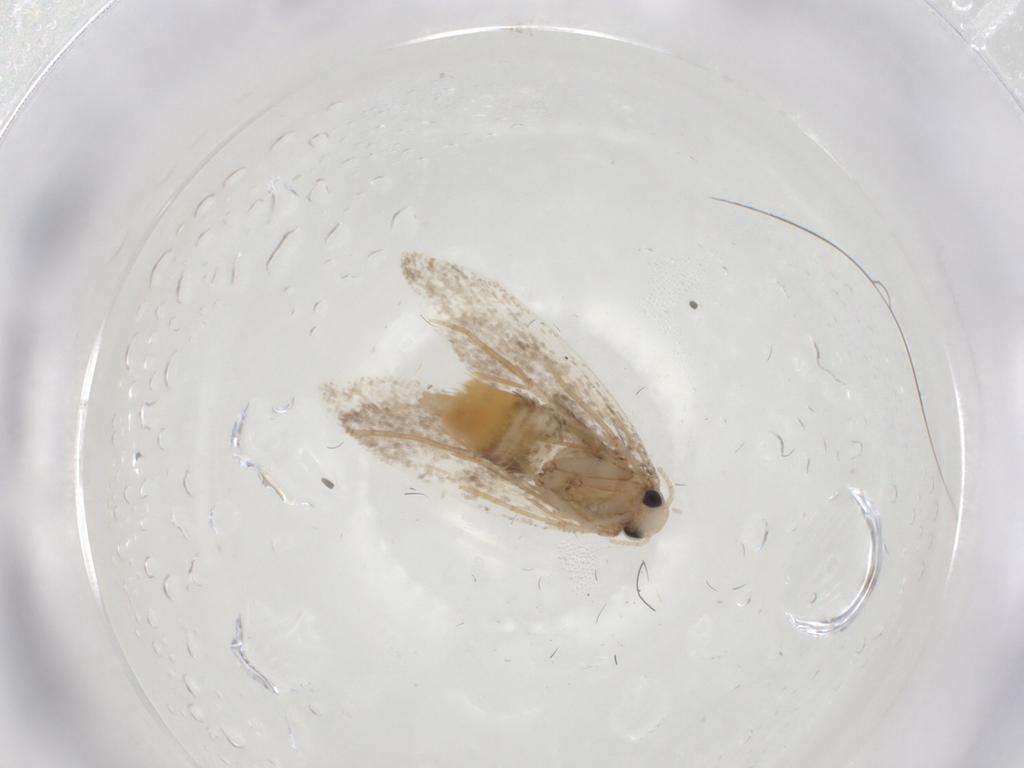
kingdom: Animalia
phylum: Arthropoda
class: Insecta
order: Lepidoptera
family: Psychidae
